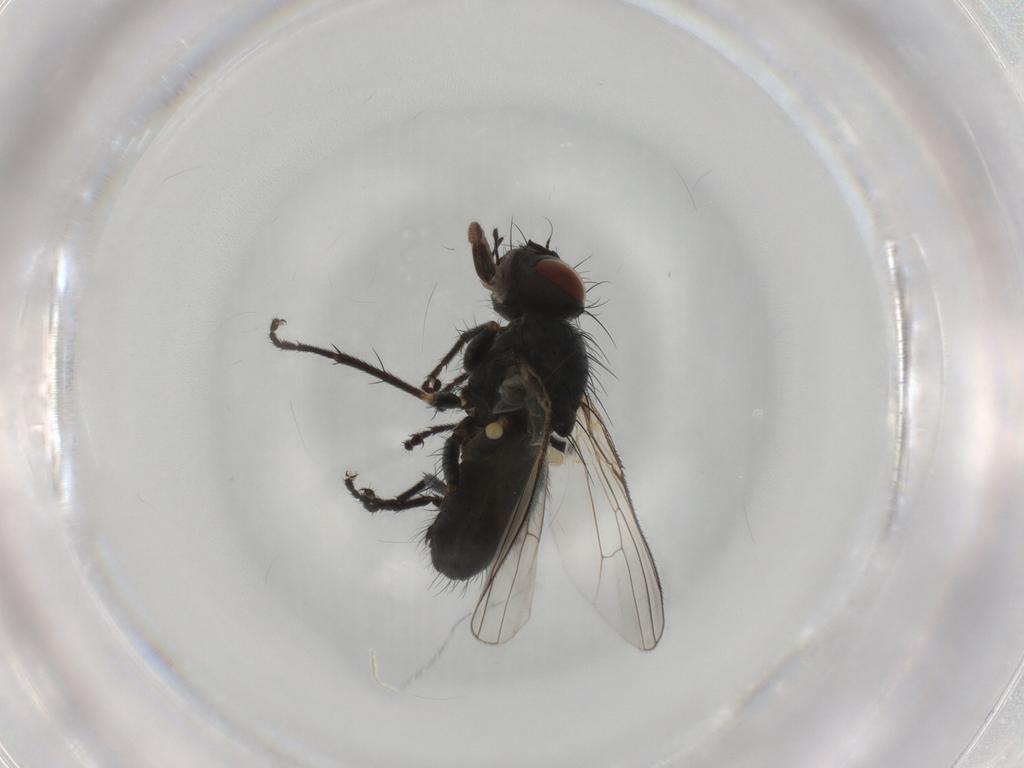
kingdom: Animalia
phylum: Arthropoda
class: Insecta
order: Diptera
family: Muscidae
